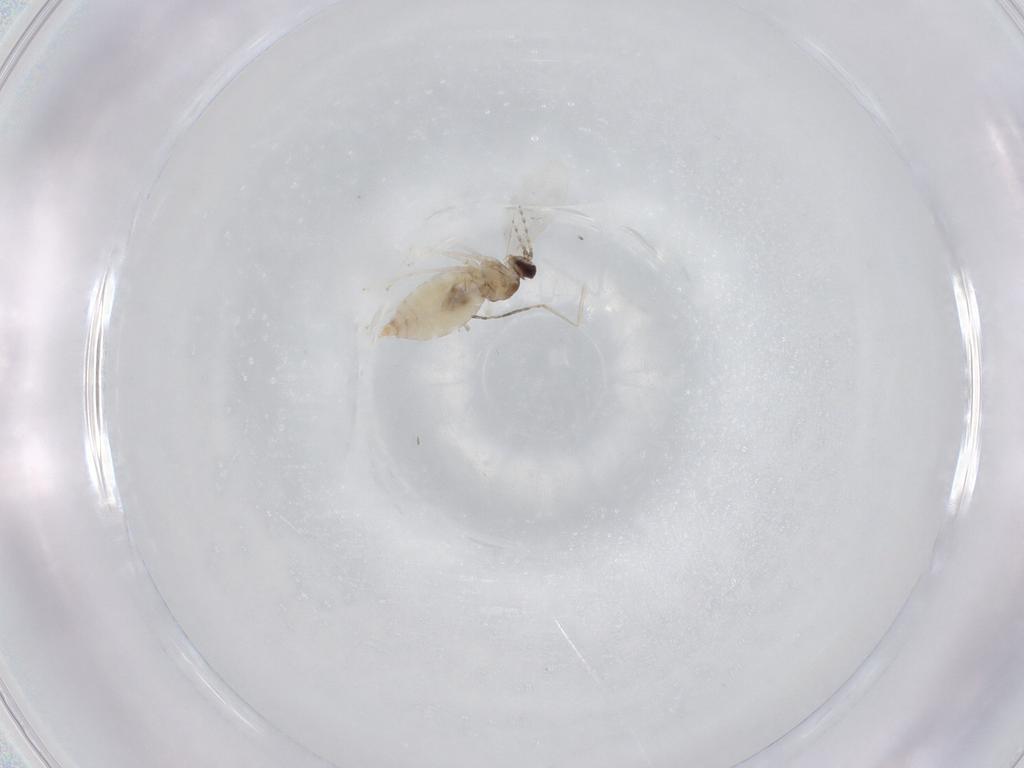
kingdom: Animalia
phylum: Arthropoda
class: Insecta
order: Diptera
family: Cecidomyiidae
